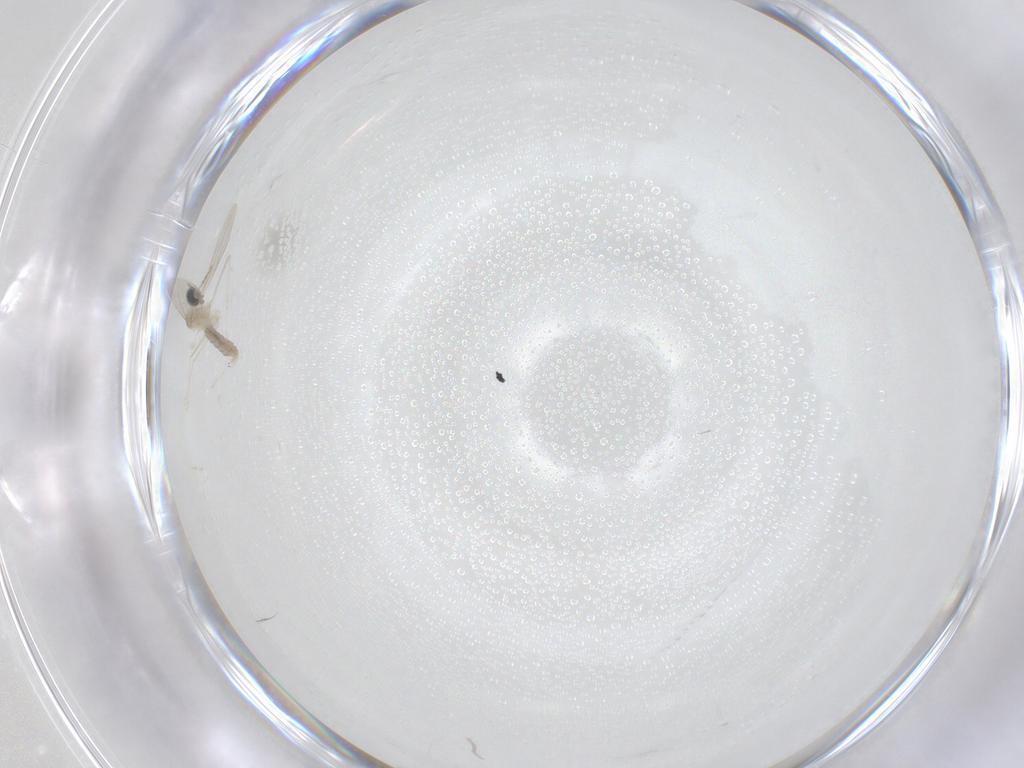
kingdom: Animalia
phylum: Arthropoda
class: Insecta
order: Diptera
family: Cecidomyiidae
